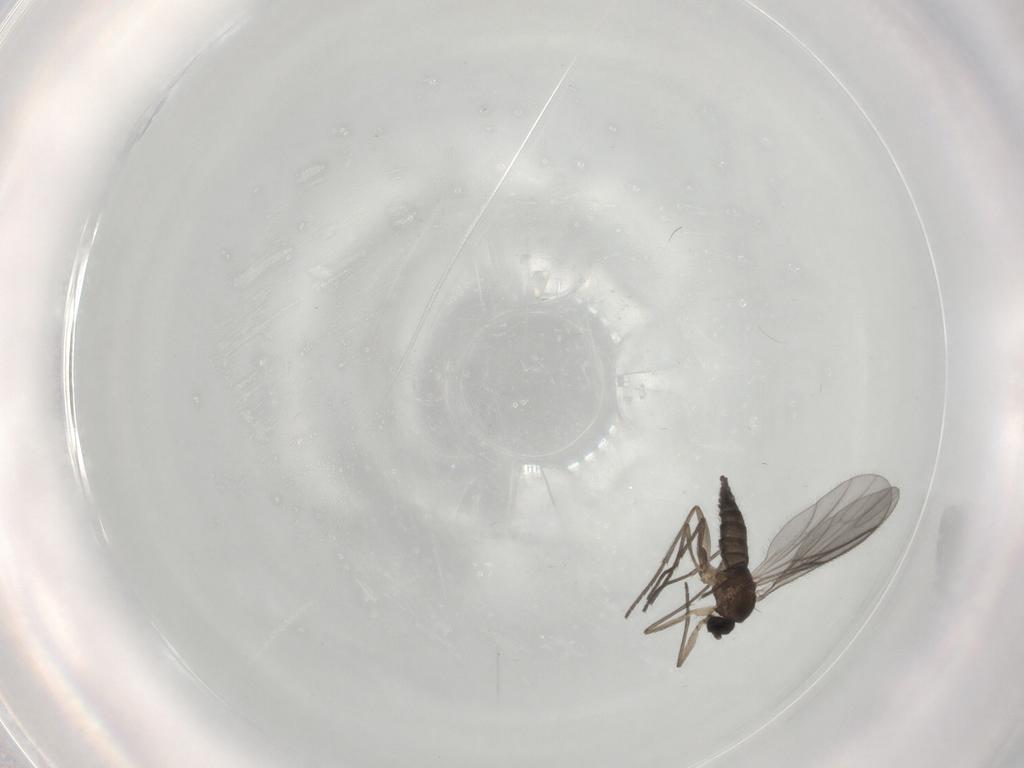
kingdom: Animalia
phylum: Arthropoda
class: Insecta
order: Diptera
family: Sciaridae
